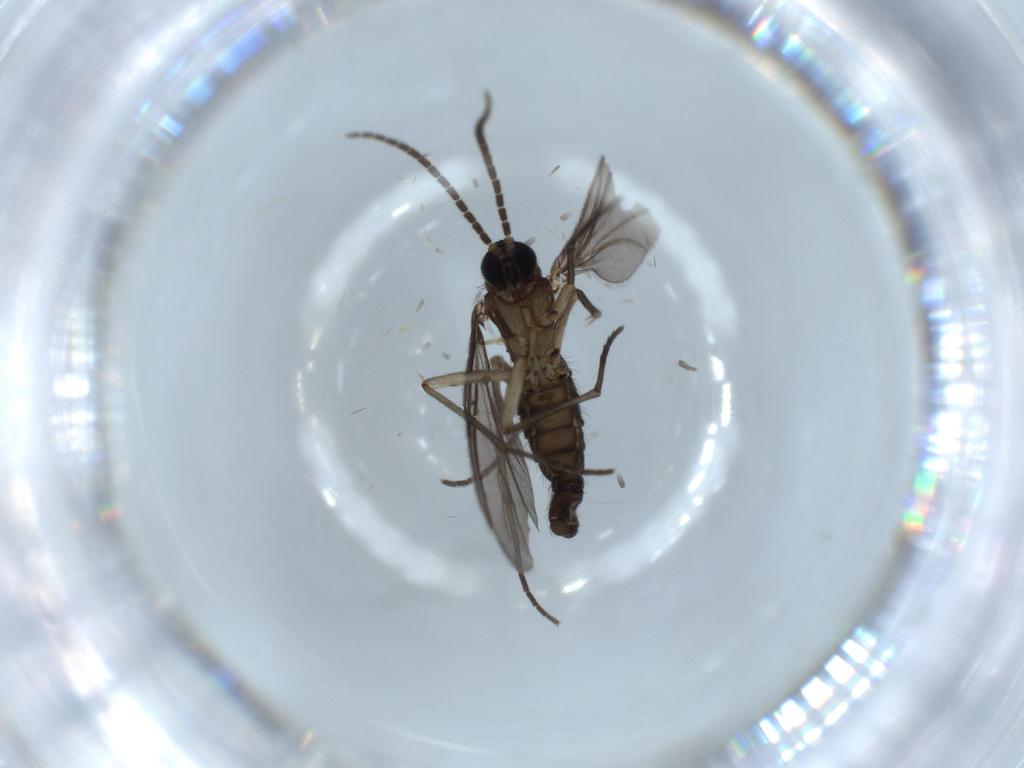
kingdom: Animalia
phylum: Arthropoda
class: Insecta
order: Diptera
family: Sciaridae
